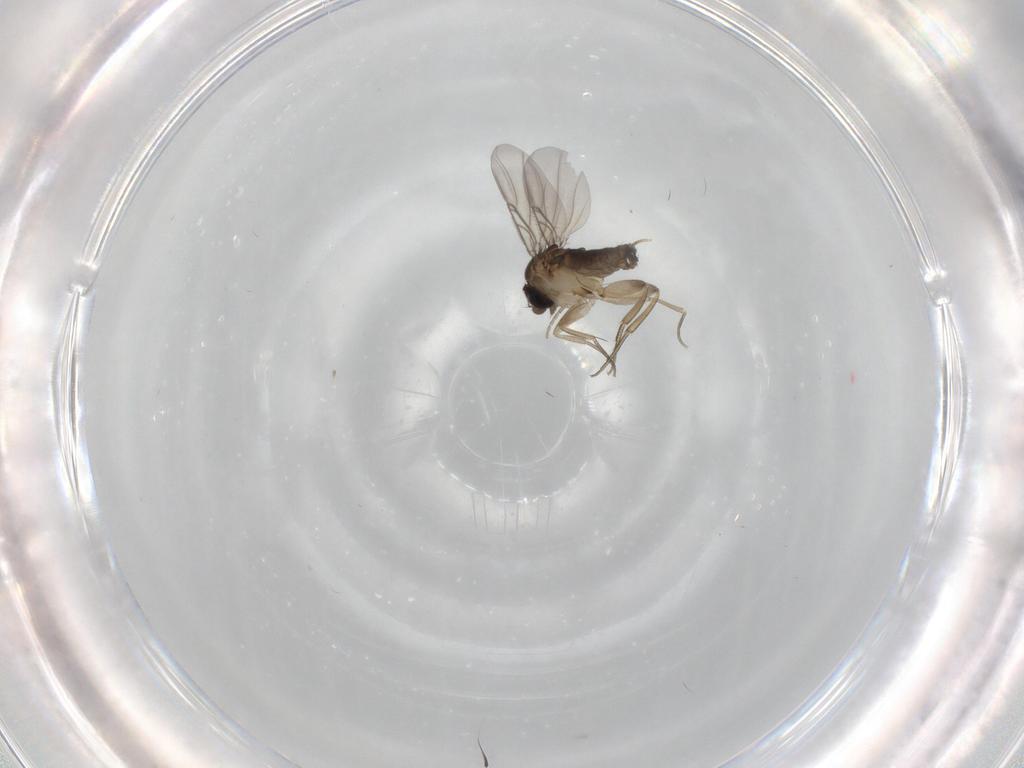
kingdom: Animalia
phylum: Arthropoda
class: Insecta
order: Diptera
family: Phoridae
